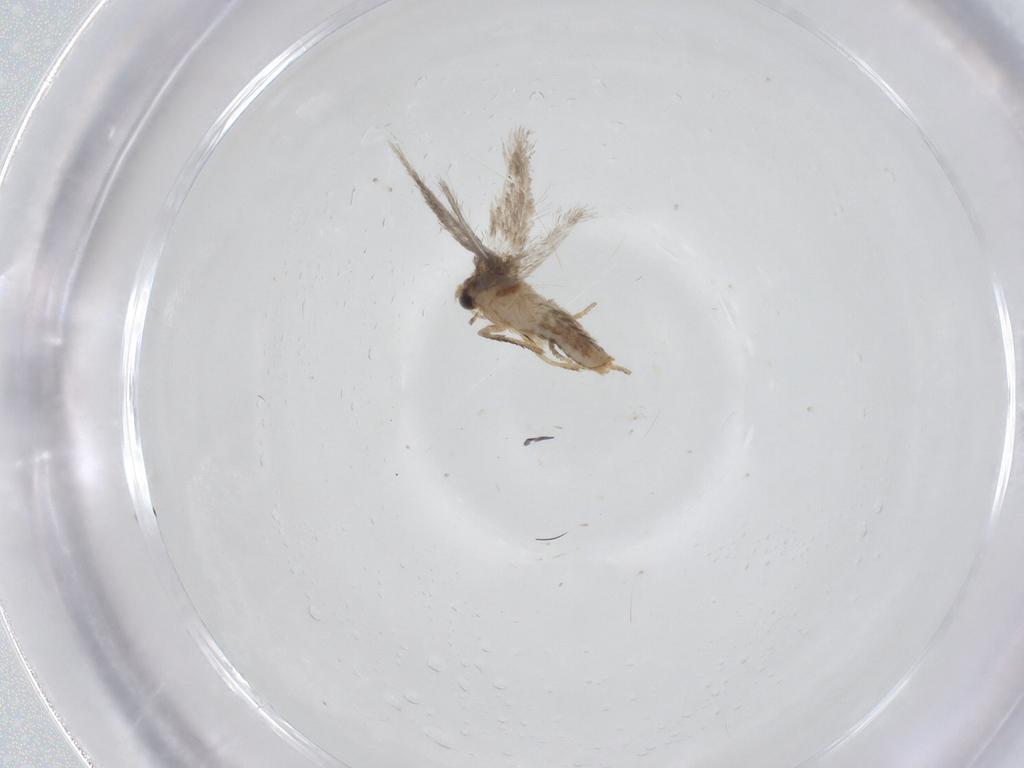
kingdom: Animalia
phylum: Arthropoda
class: Insecta
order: Lepidoptera
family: Nepticulidae
